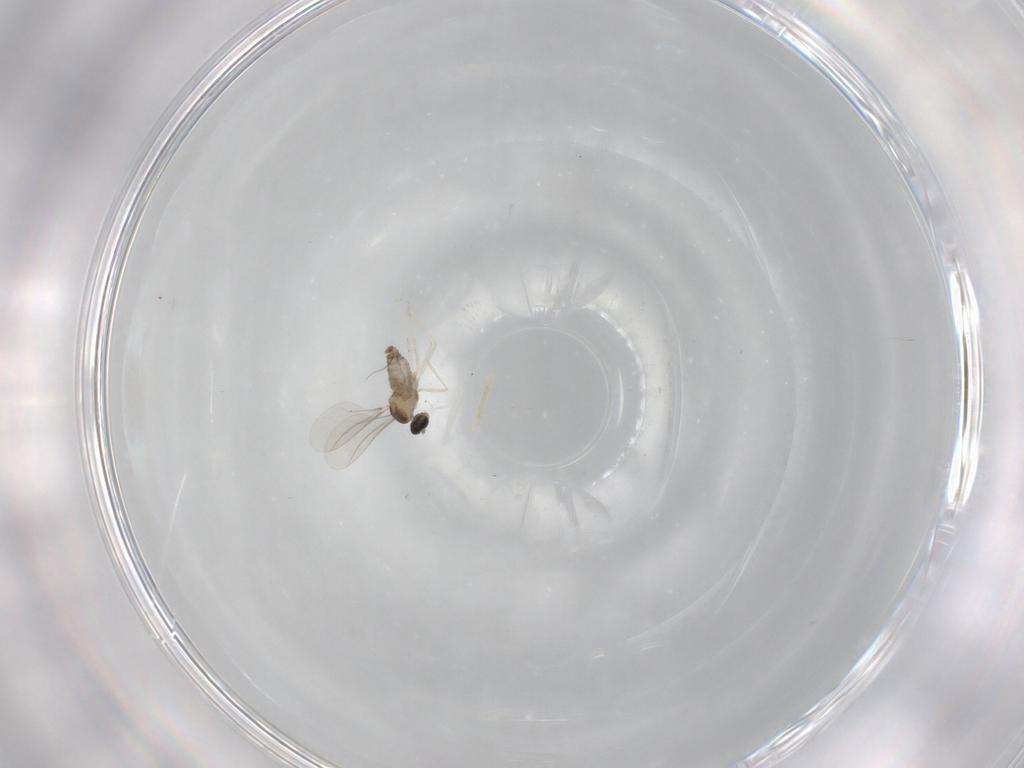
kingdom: Animalia
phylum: Arthropoda
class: Insecta
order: Diptera
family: Cecidomyiidae
